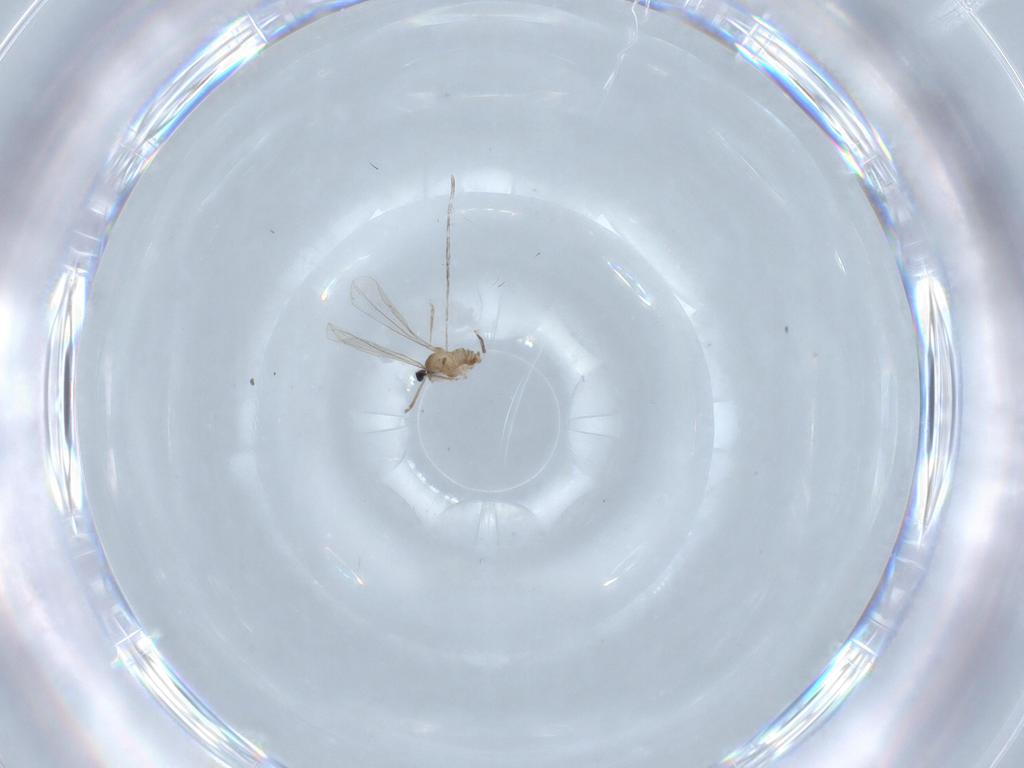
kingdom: Animalia
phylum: Arthropoda
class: Insecta
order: Diptera
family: Cecidomyiidae
